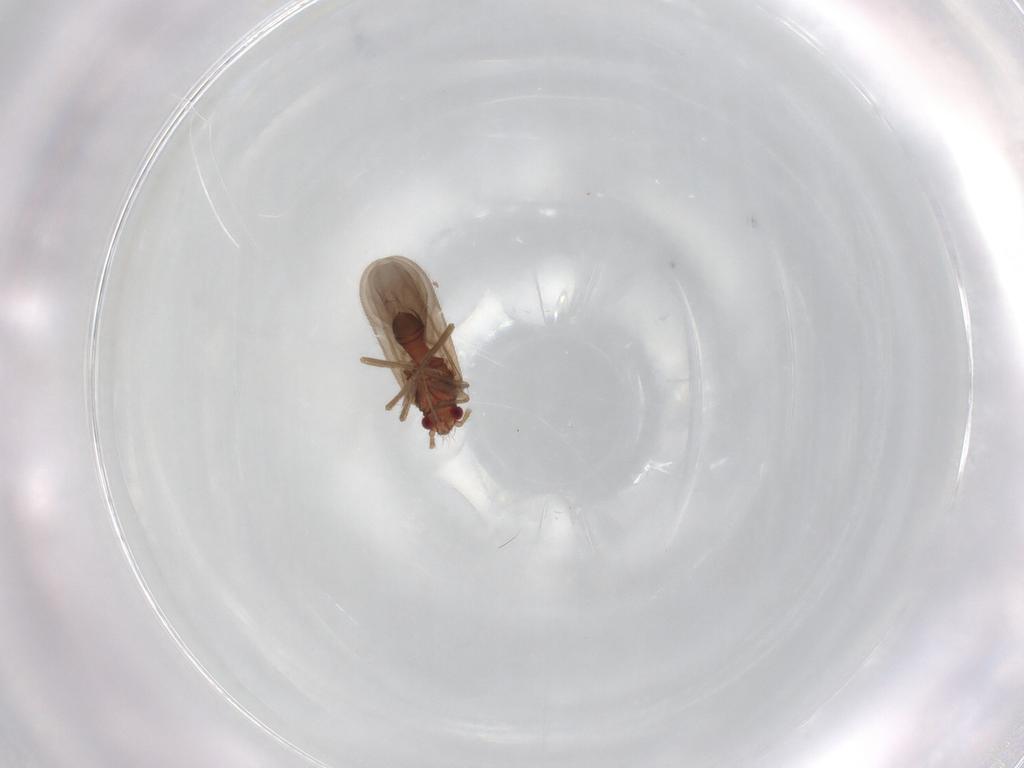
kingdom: Animalia
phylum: Arthropoda
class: Insecta
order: Hemiptera
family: Ceratocombidae
